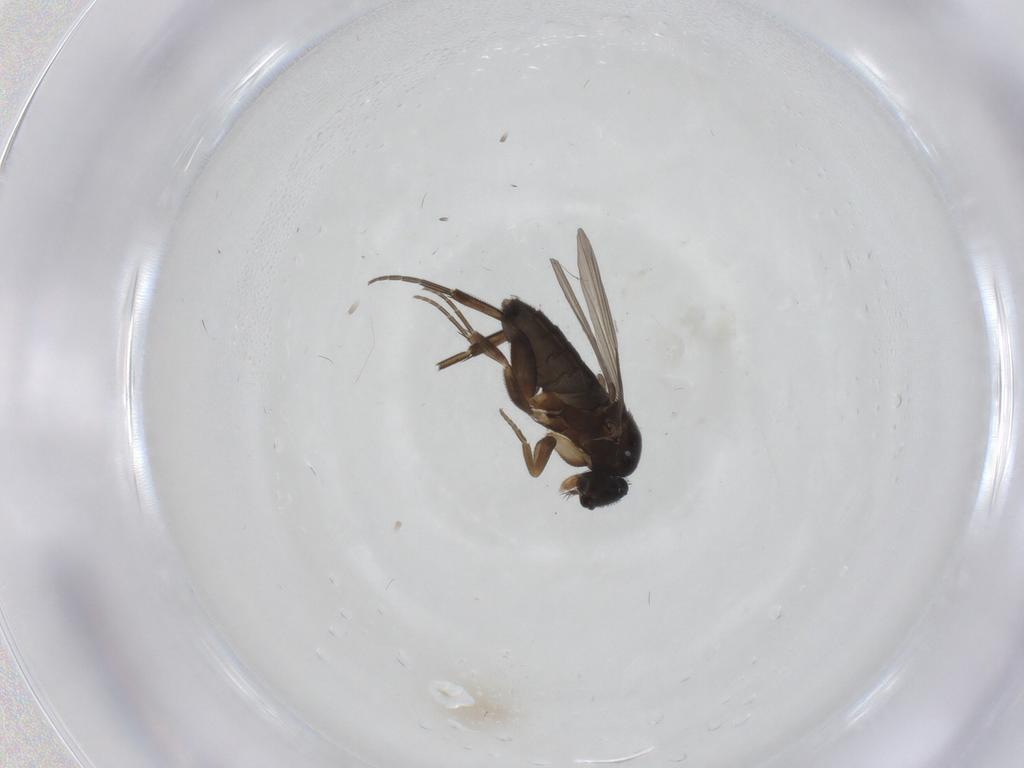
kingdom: Animalia
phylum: Arthropoda
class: Insecta
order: Diptera
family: Phoridae
